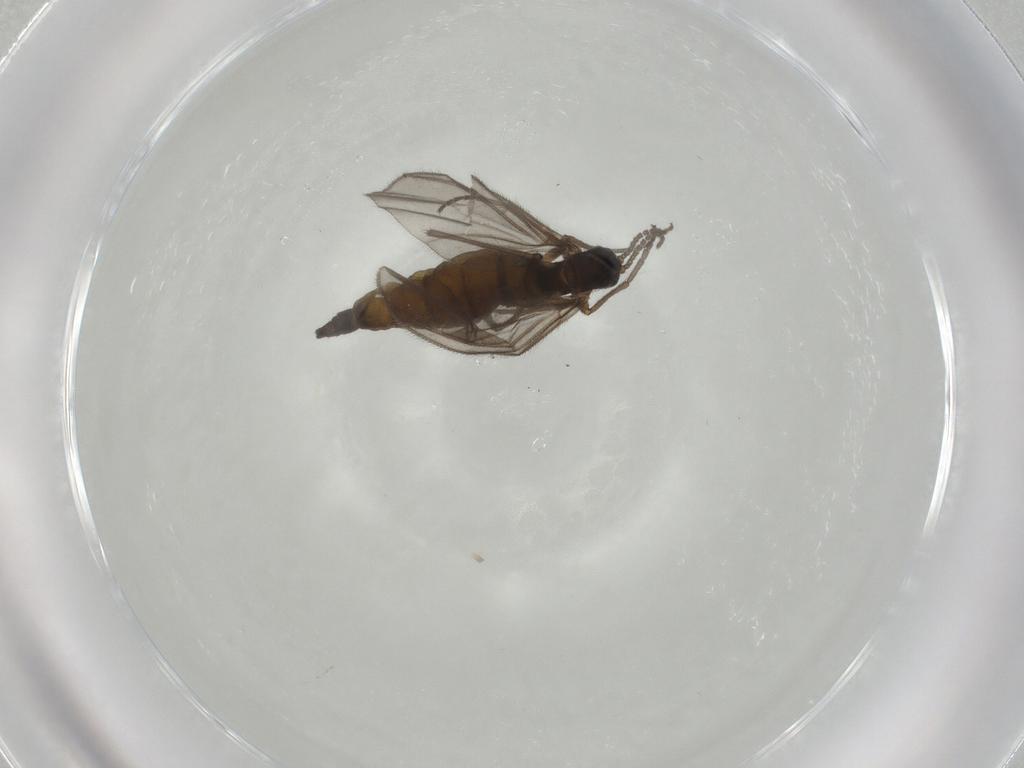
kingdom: Animalia
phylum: Arthropoda
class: Insecta
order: Diptera
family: Sciaridae
